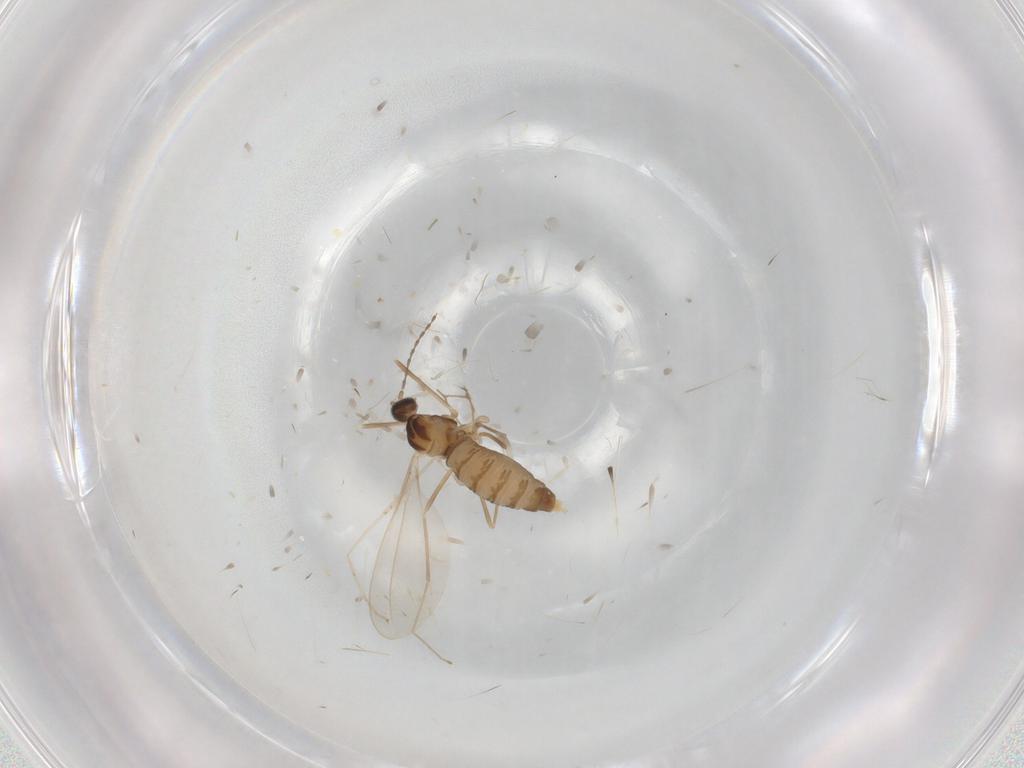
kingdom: Animalia
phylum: Arthropoda
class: Insecta
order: Diptera
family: Cecidomyiidae
